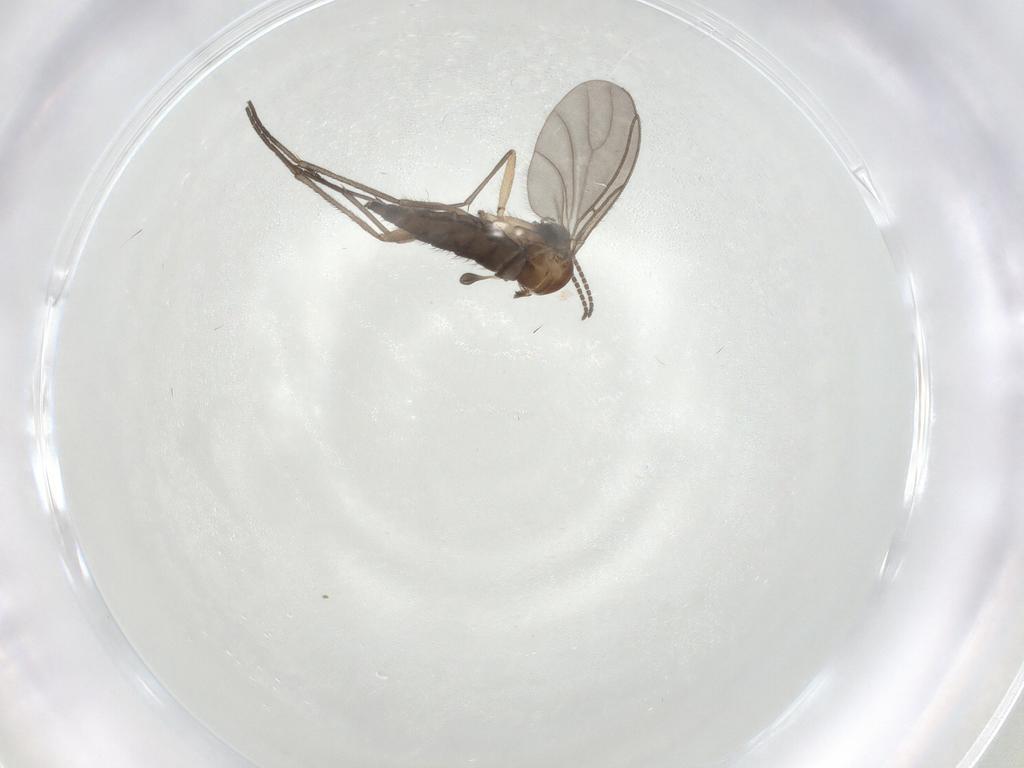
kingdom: Animalia
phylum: Arthropoda
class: Insecta
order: Diptera
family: Sciaridae
